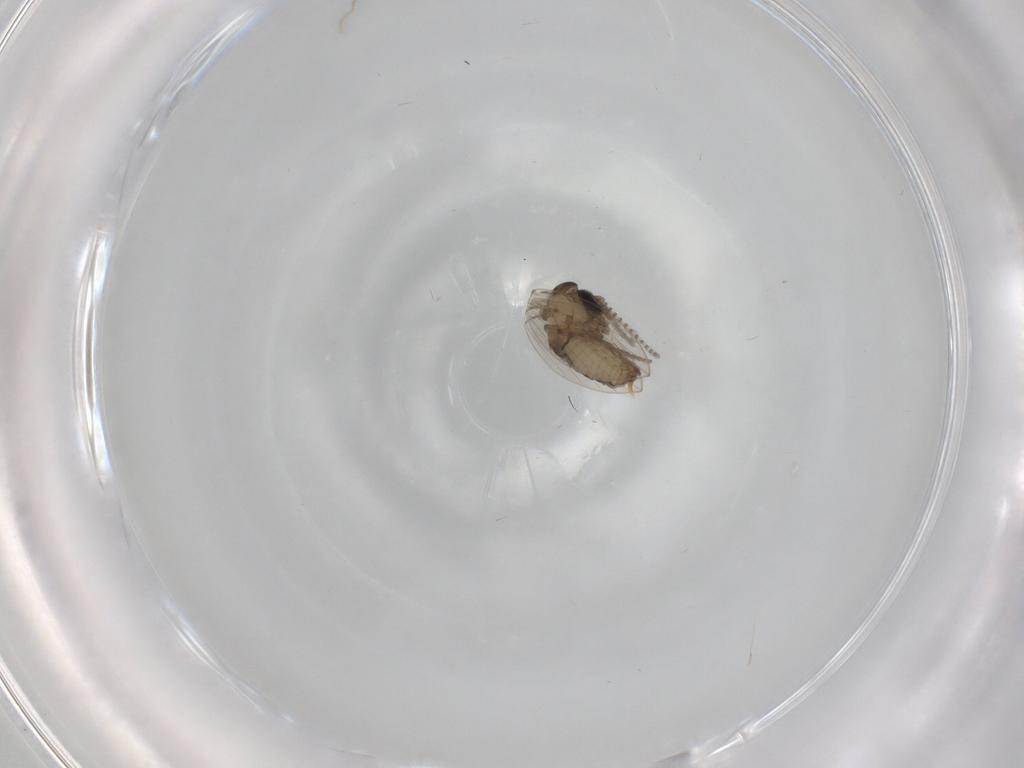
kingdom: Animalia
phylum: Arthropoda
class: Insecta
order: Diptera
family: Psychodidae
